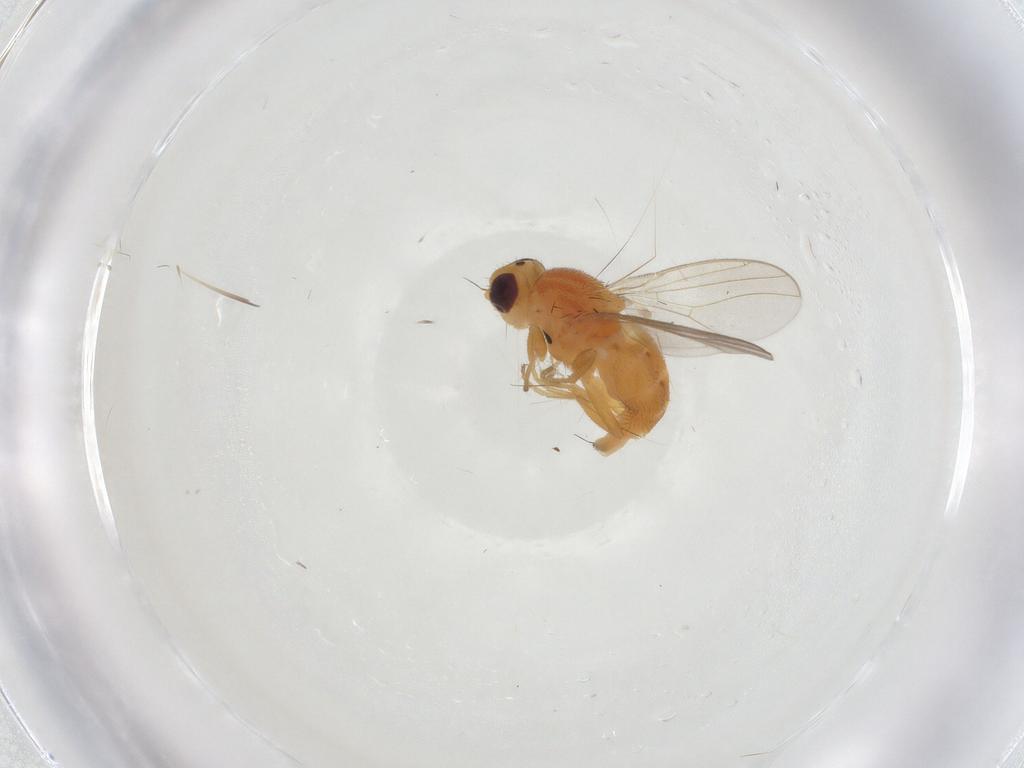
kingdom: Animalia
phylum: Arthropoda
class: Insecta
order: Diptera
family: Chloropidae
